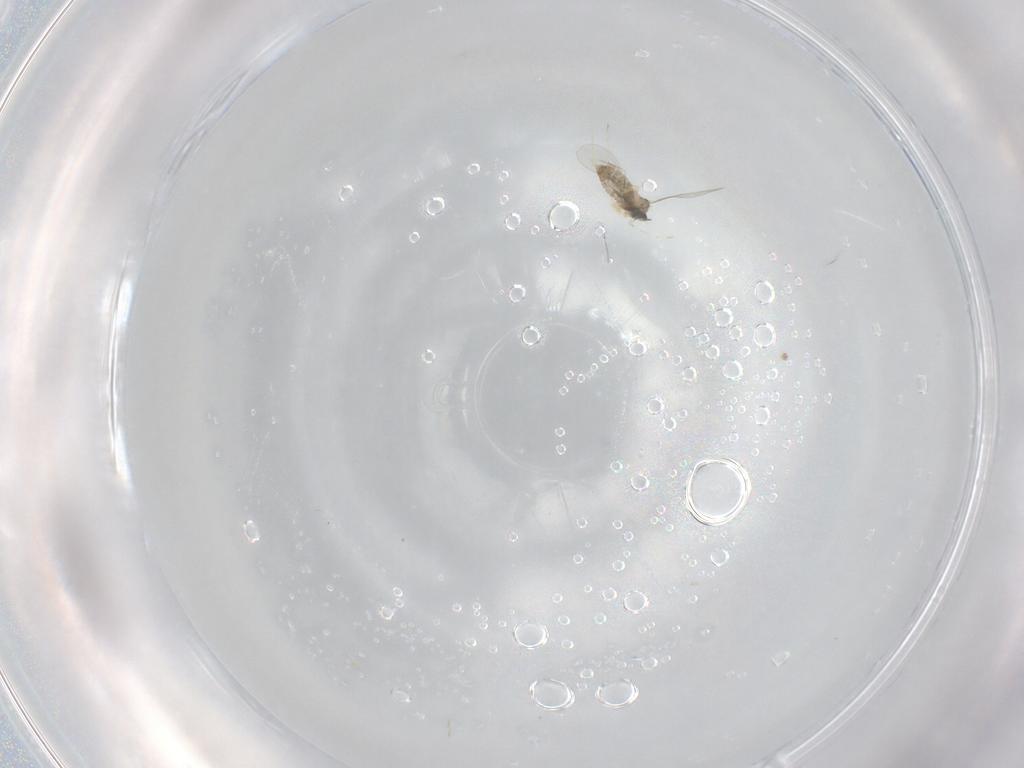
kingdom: Animalia
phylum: Arthropoda
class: Insecta
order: Diptera
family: Cecidomyiidae
